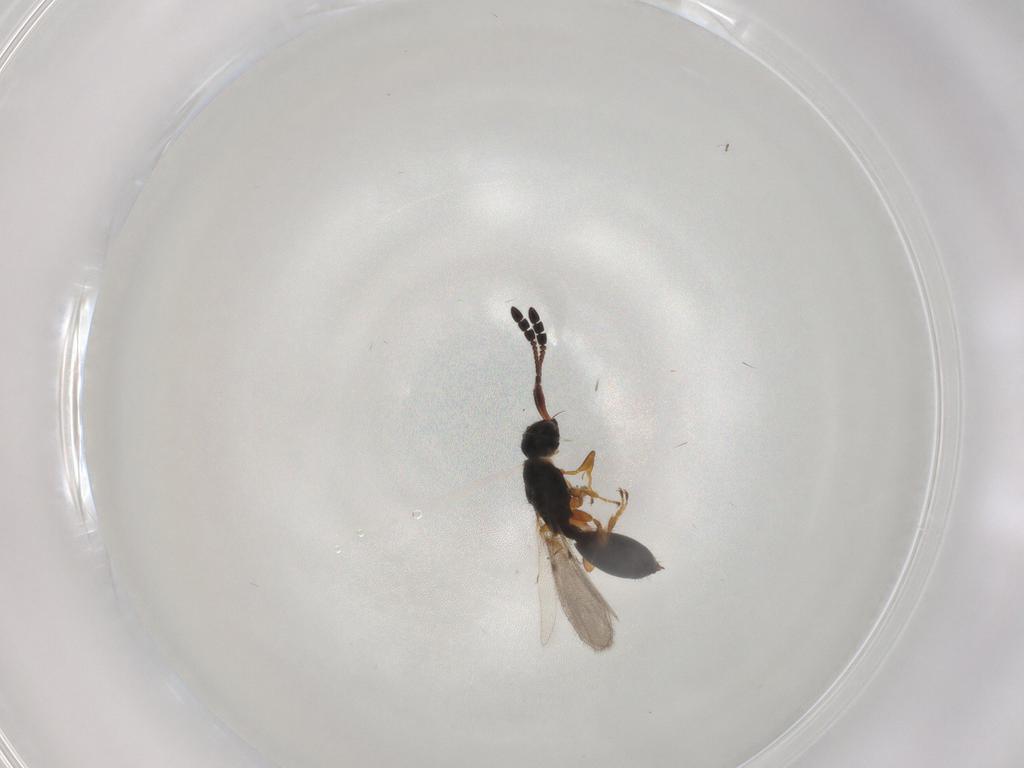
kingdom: Animalia
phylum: Arthropoda
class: Insecta
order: Hymenoptera
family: Diapriidae
